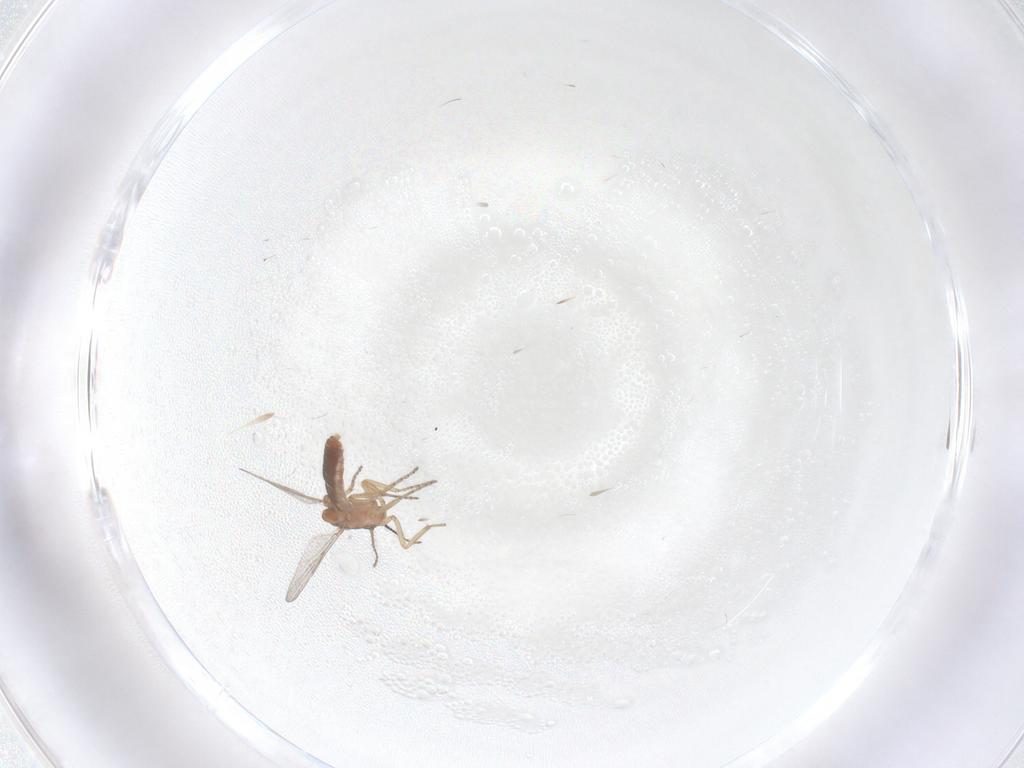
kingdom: Animalia
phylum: Arthropoda
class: Insecta
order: Diptera
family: Ceratopogonidae
